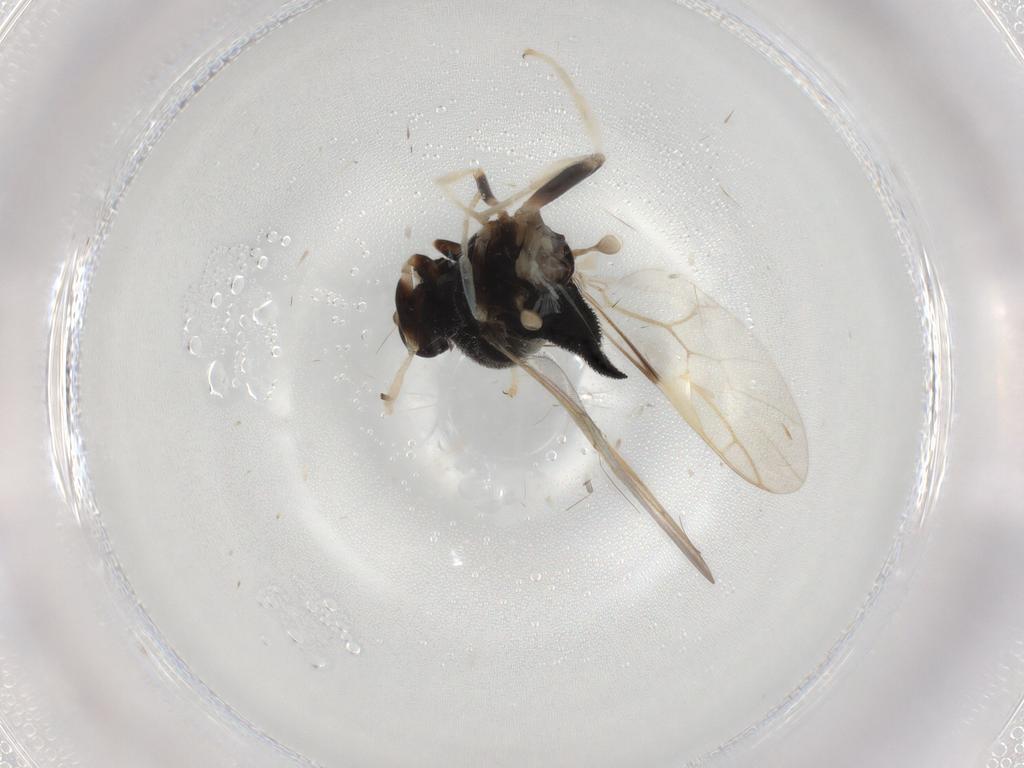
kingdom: Animalia
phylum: Arthropoda
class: Insecta
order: Diptera
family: Stratiomyidae
